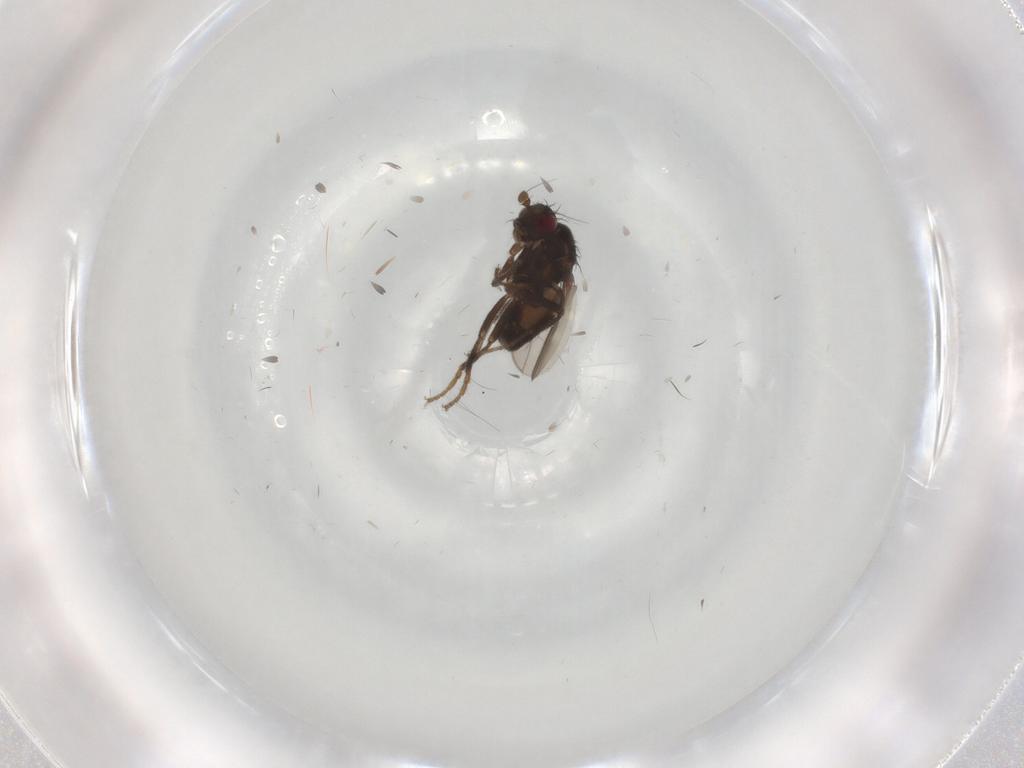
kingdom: Animalia
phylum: Arthropoda
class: Insecta
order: Diptera
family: Sphaeroceridae
